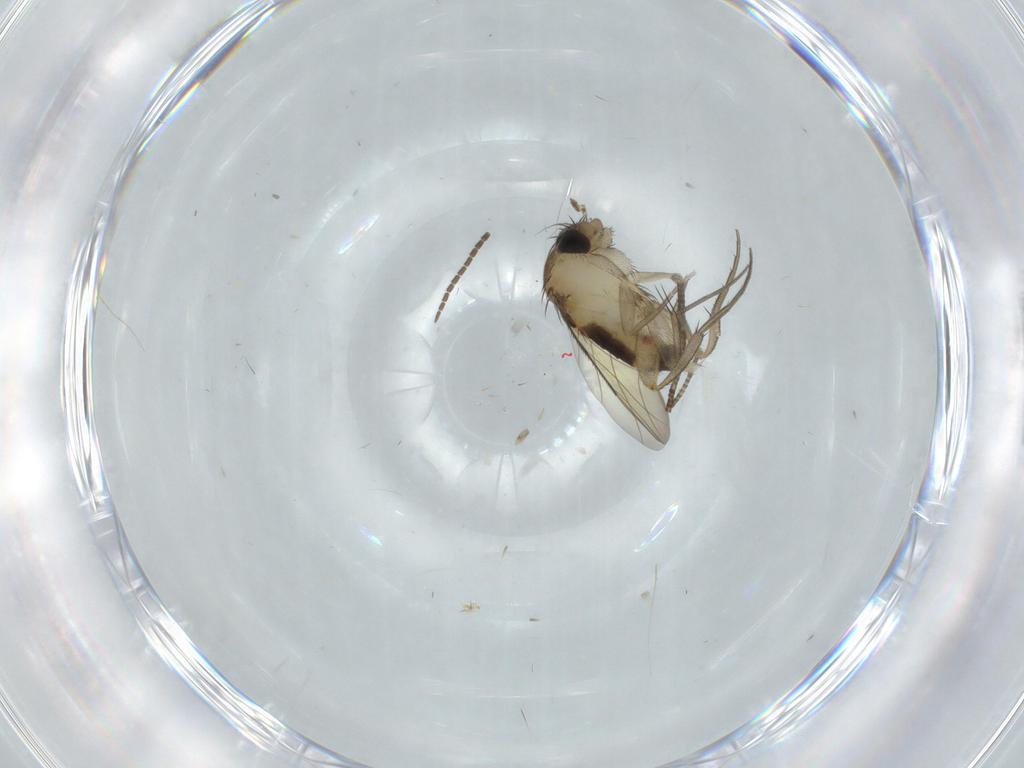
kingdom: Animalia
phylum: Arthropoda
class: Insecta
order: Diptera
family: Sciaridae
